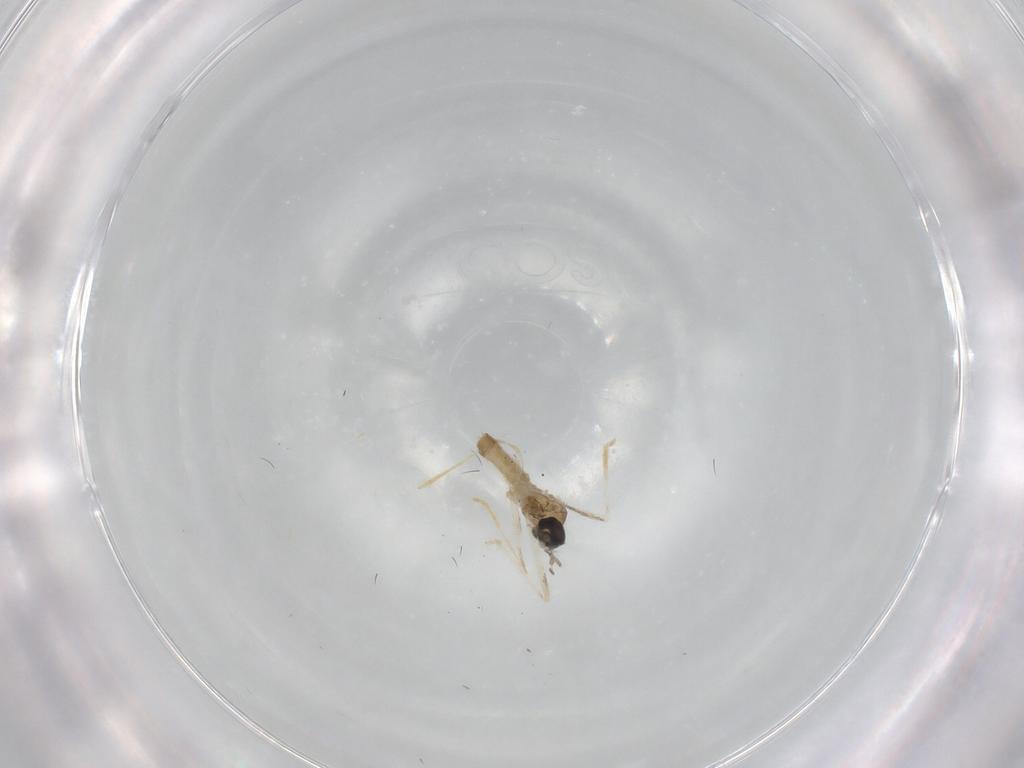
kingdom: Animalia
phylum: Arthropoda
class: Insecta
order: Diptera
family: Cecidomyiidae
